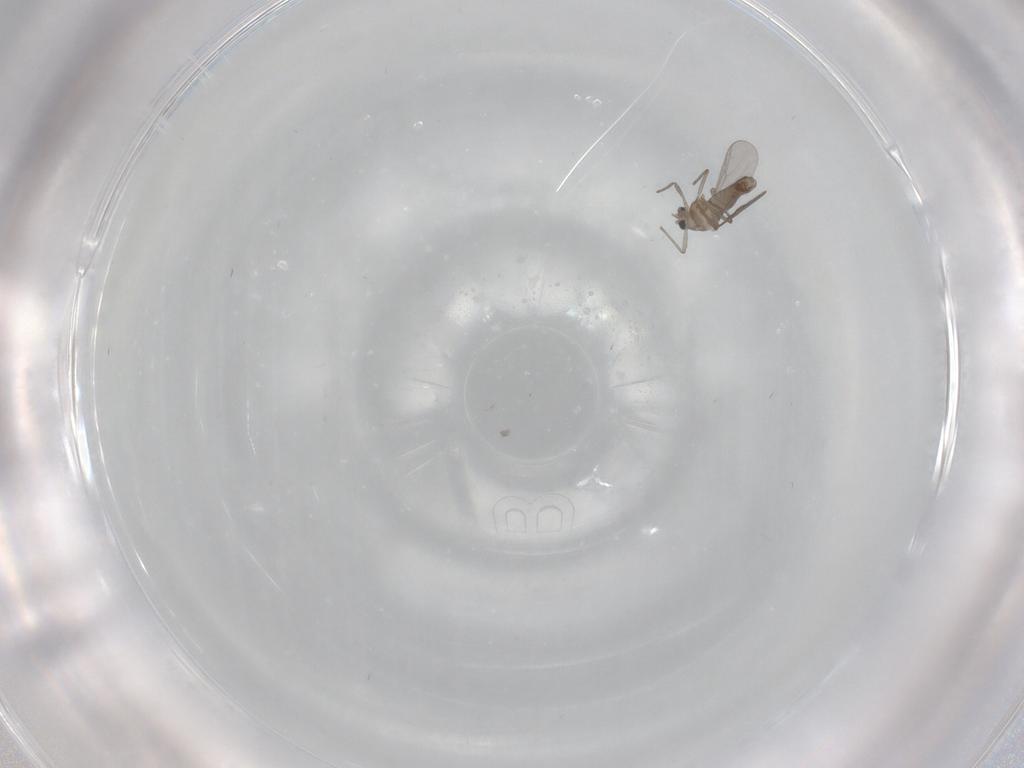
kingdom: Animalia
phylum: Arthropoda
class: Insecta
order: Diptera
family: Chironomidae
